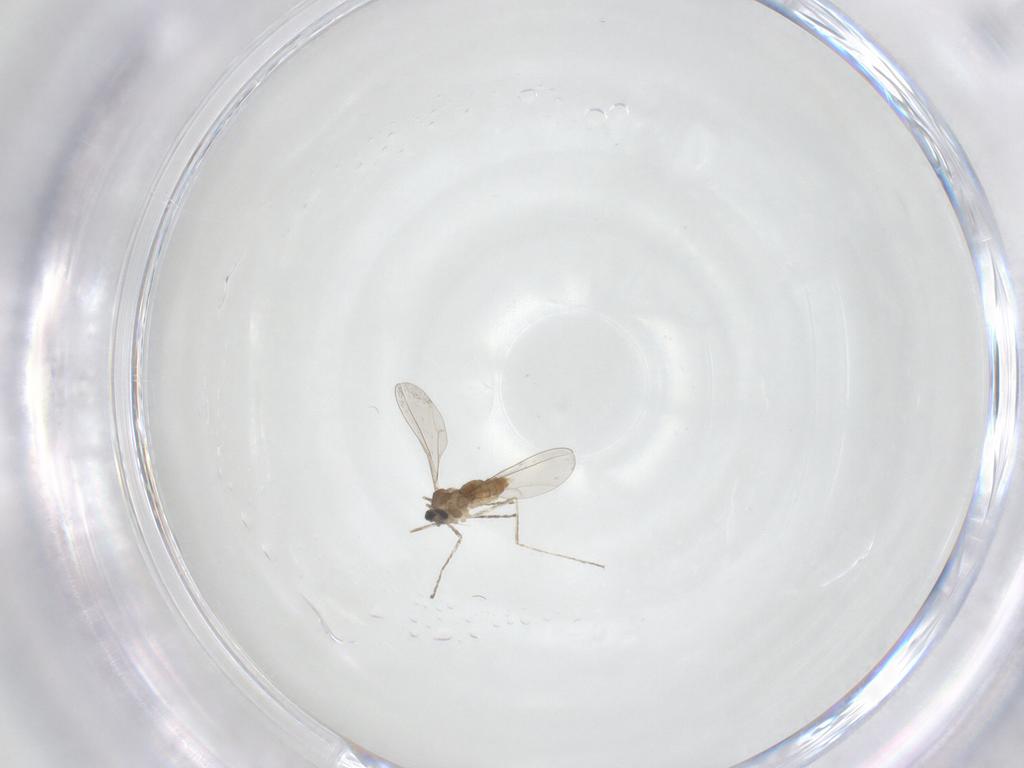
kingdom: Animalia
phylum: Arthropoda
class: Insecta
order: Diptera
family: Cecidomyiidae
